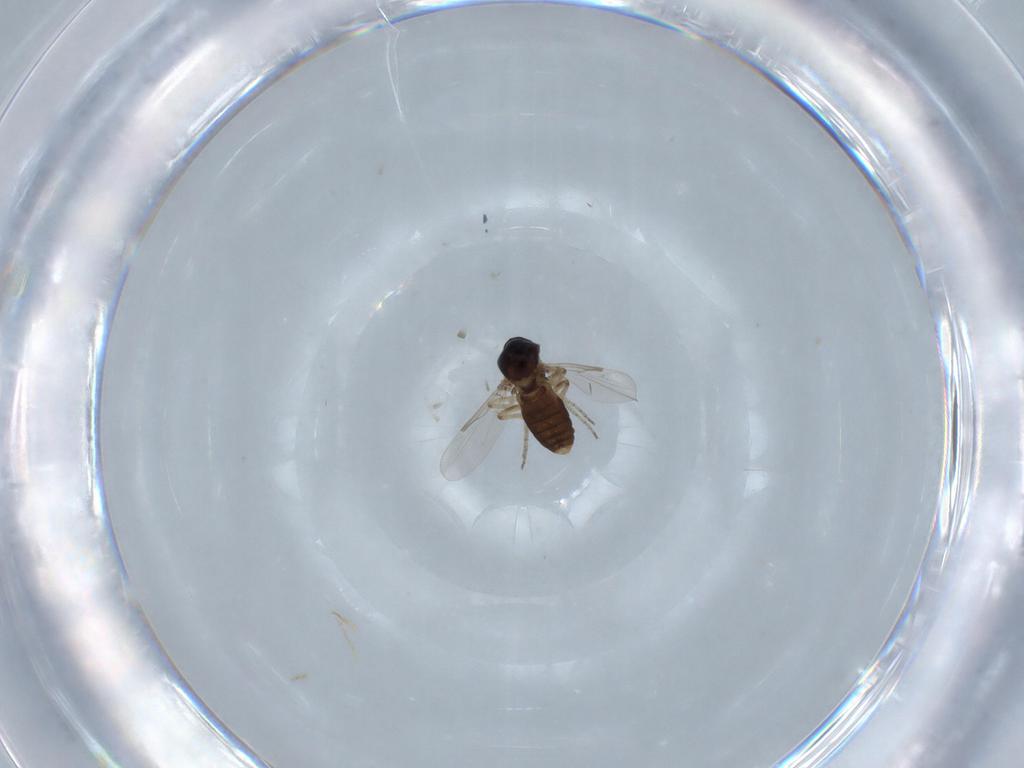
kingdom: Animalia
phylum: Arthropoda
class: Insecta
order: Diptera
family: Ceratopogonidae
